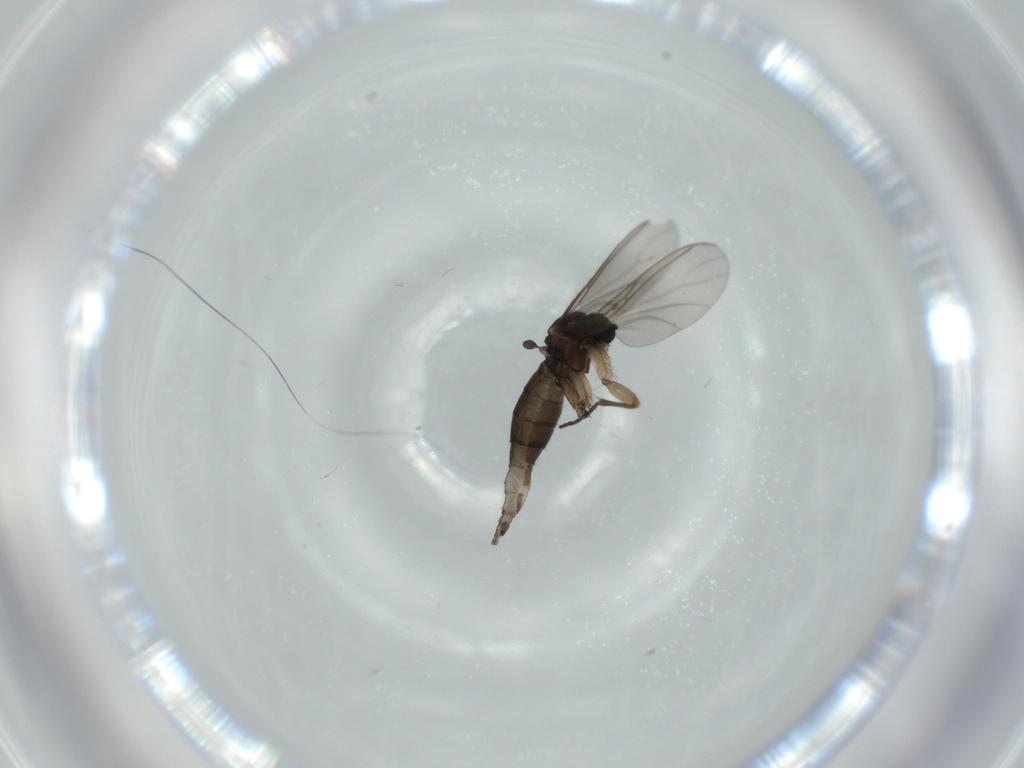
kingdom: Animalia
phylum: Arthropoda
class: Insecta
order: Diptera
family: Sciaridae
